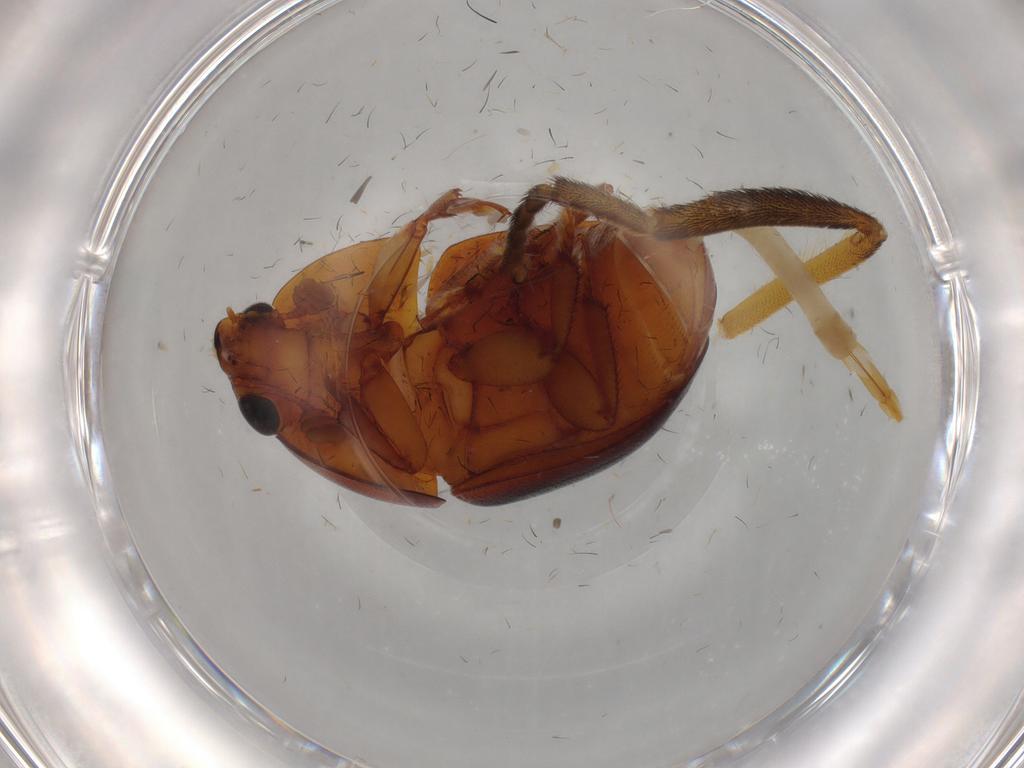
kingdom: Animalia
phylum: Arthropoda
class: Insecta
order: Coleoptera
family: Nitidulidae
